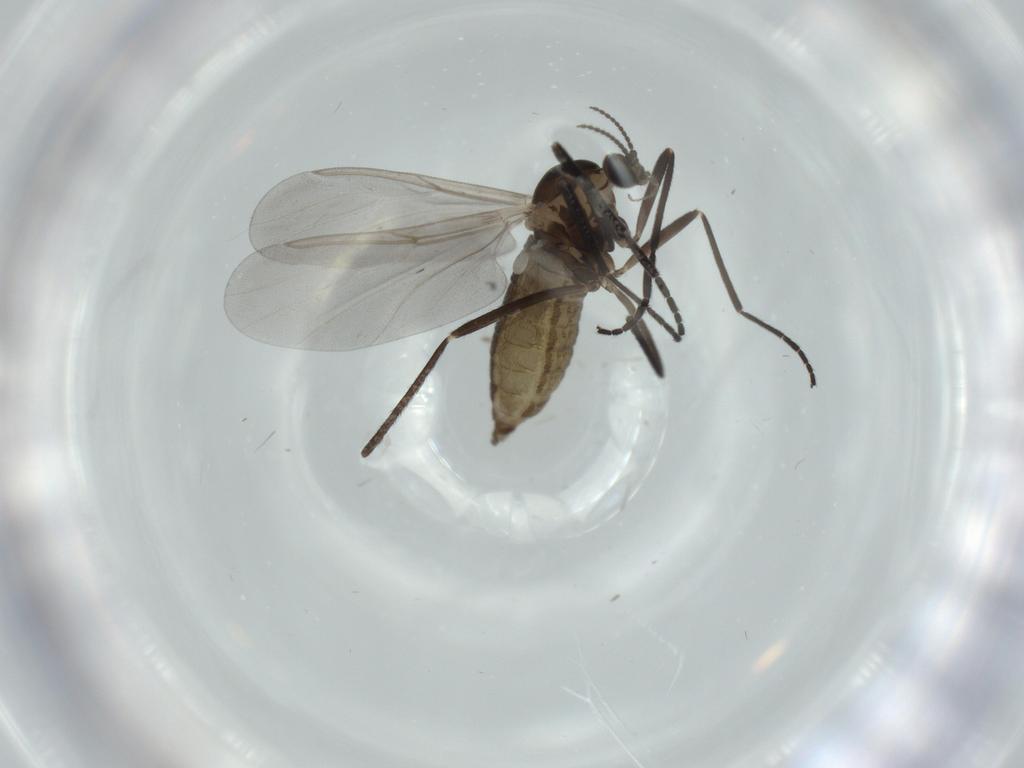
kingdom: Animalia
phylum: Arthropoda
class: Insecta
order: Diptera
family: Cecidomyiidae
